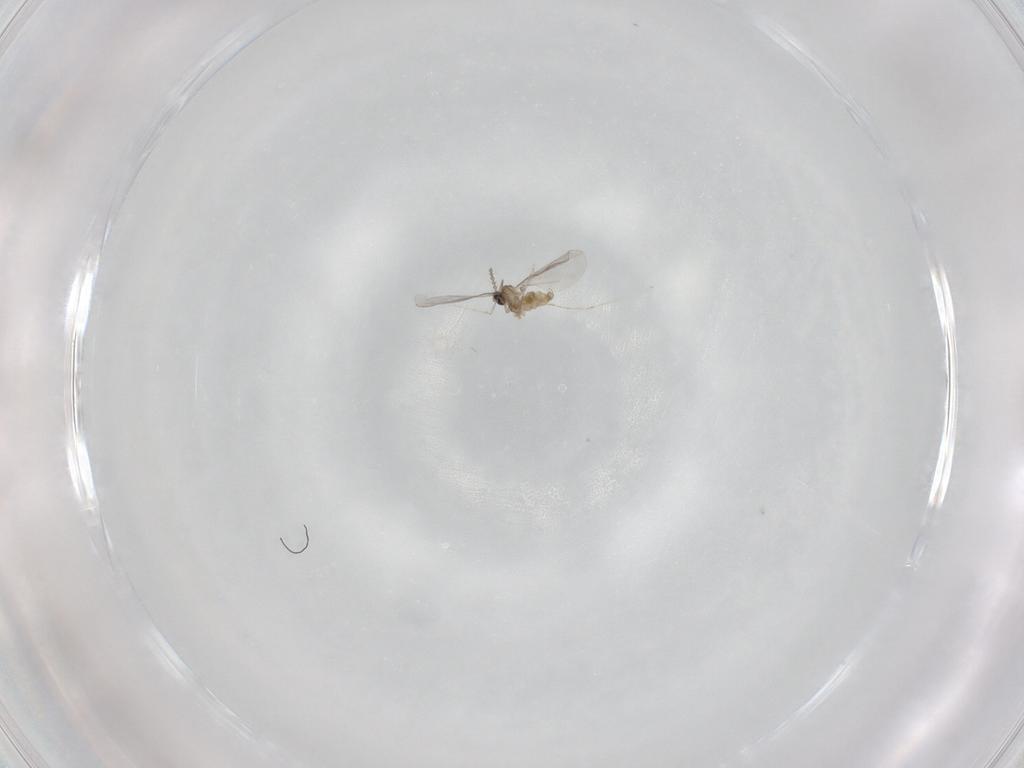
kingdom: Animalia
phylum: Arthropoda
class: Insecta
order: Diptera
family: Cecidomyiidae
